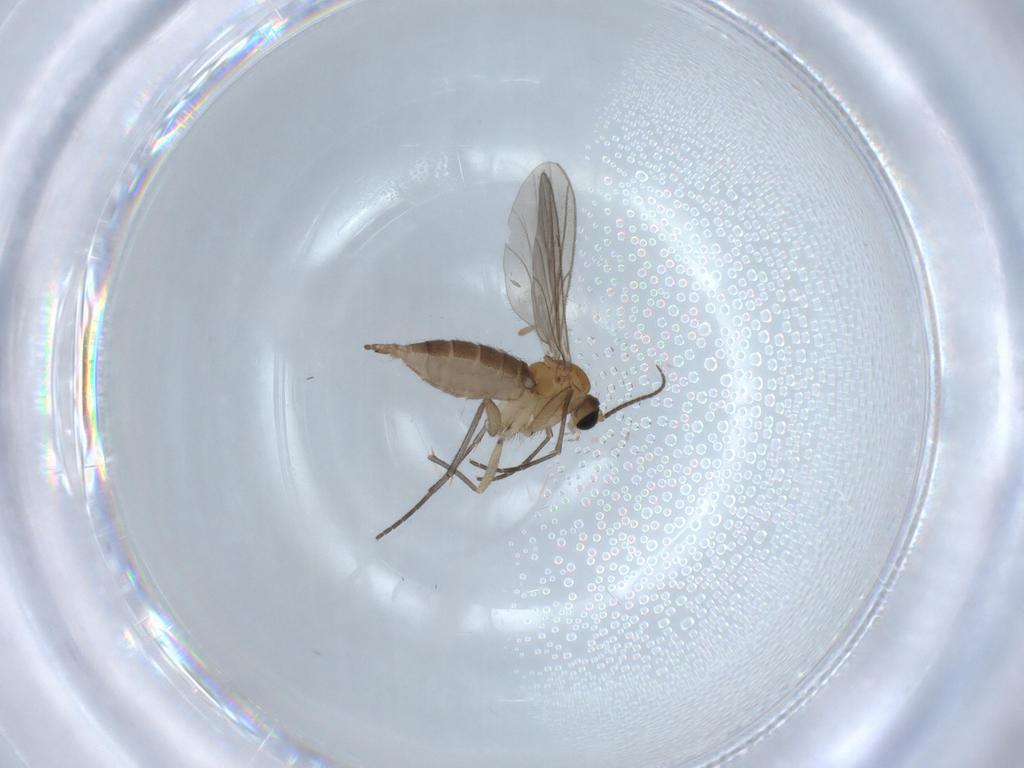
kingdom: Animalia
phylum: Arthropoda
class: Insecta
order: Diptera
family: Sciaridae
